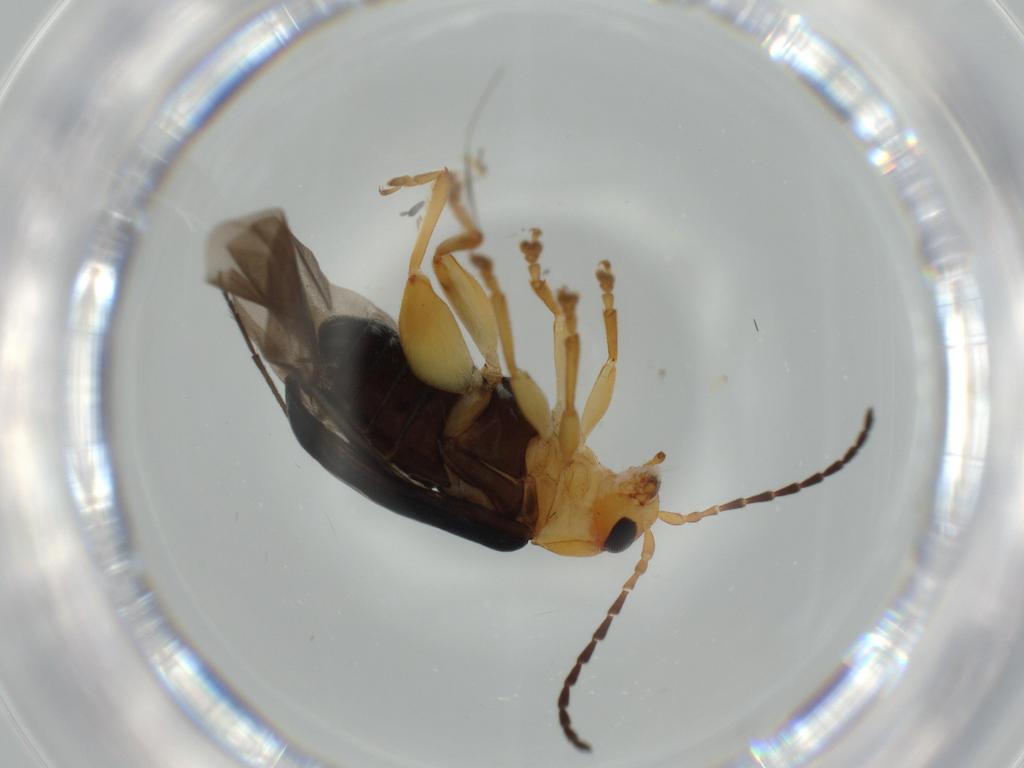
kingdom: Animalia
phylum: Arthropoda
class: Insecta
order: Coleoptera
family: Chrysomelidae
